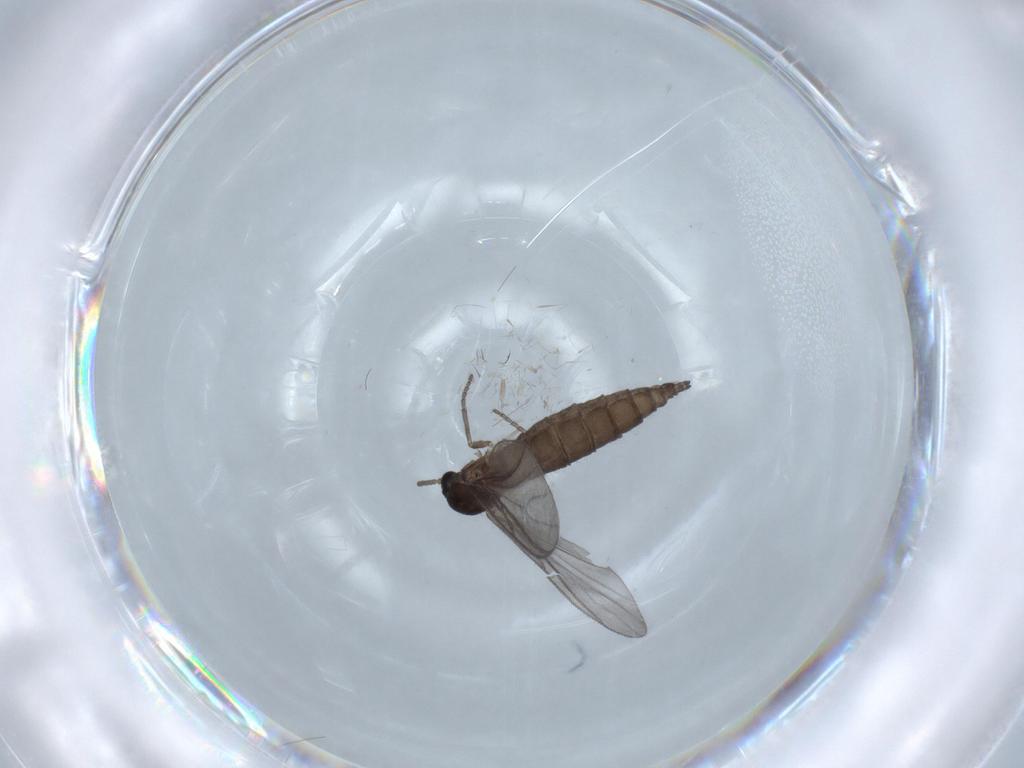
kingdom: Animalia
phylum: Arthropoda
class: Insecta
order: Diptera
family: Sciaridae
